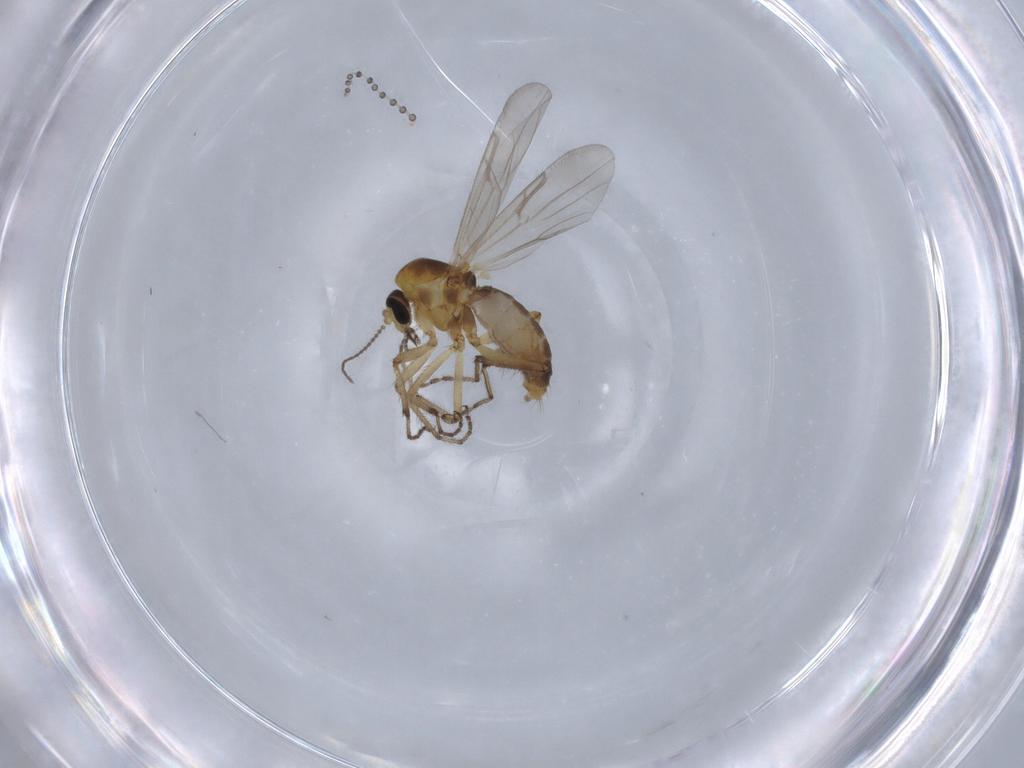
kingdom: Animalia
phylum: Arthropoda
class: Insecta
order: Diptera
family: Ceratopogonidae
